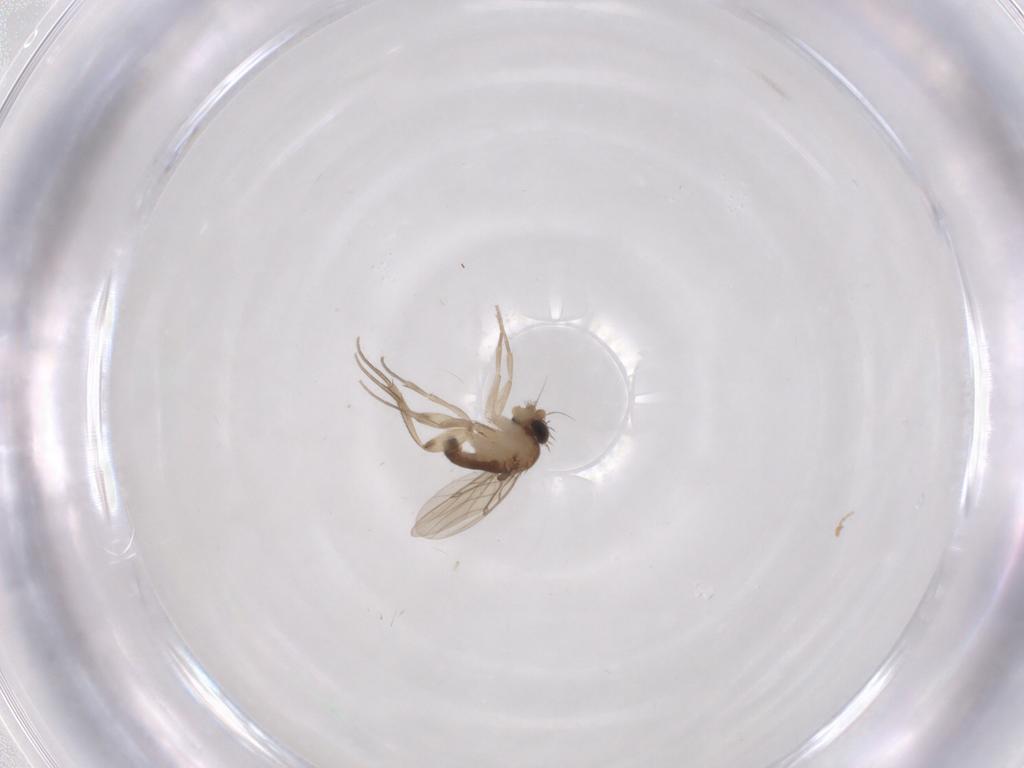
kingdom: Animalia
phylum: Arthropoda
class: Insecta
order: Diptera
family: Phoridae
